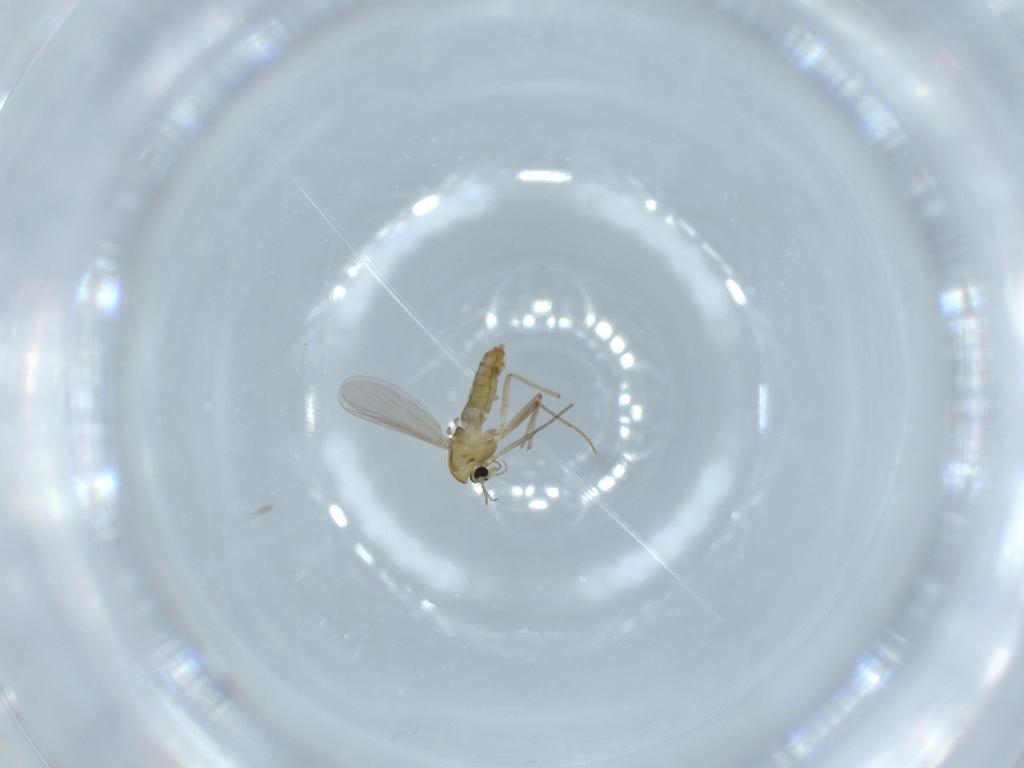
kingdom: Animalia
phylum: Arthropoda
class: Insecta
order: Diptera
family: Chironomidae
